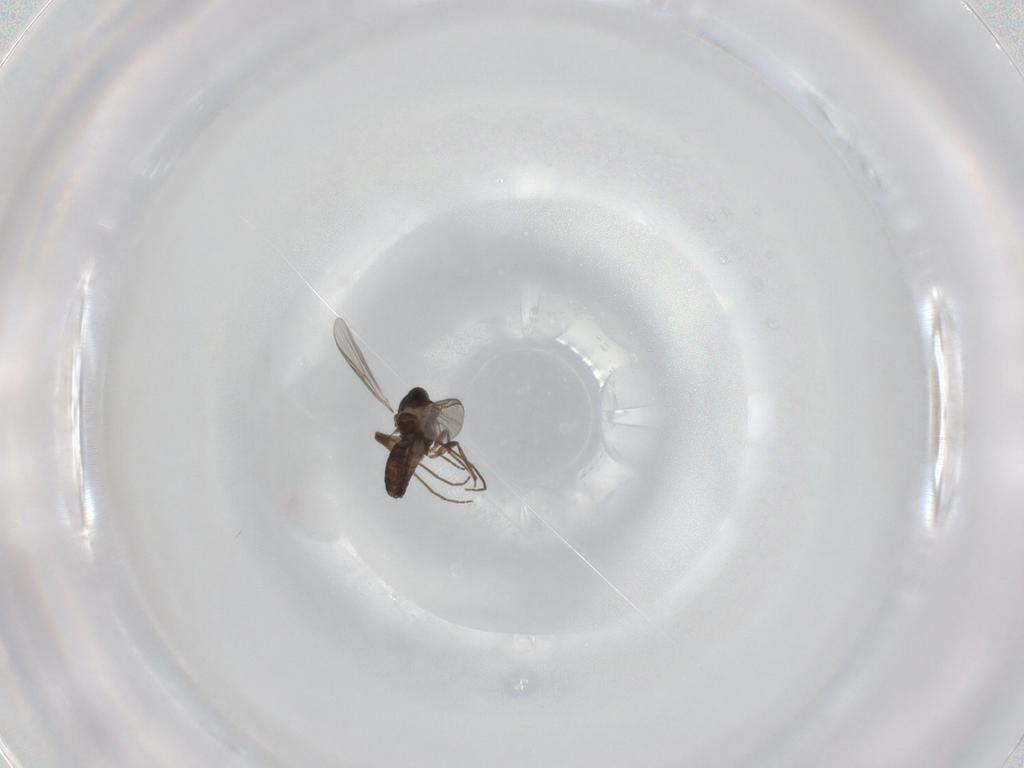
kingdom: Animalia
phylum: Arthropoda
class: Insecta
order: Diptera
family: Chironomidae
